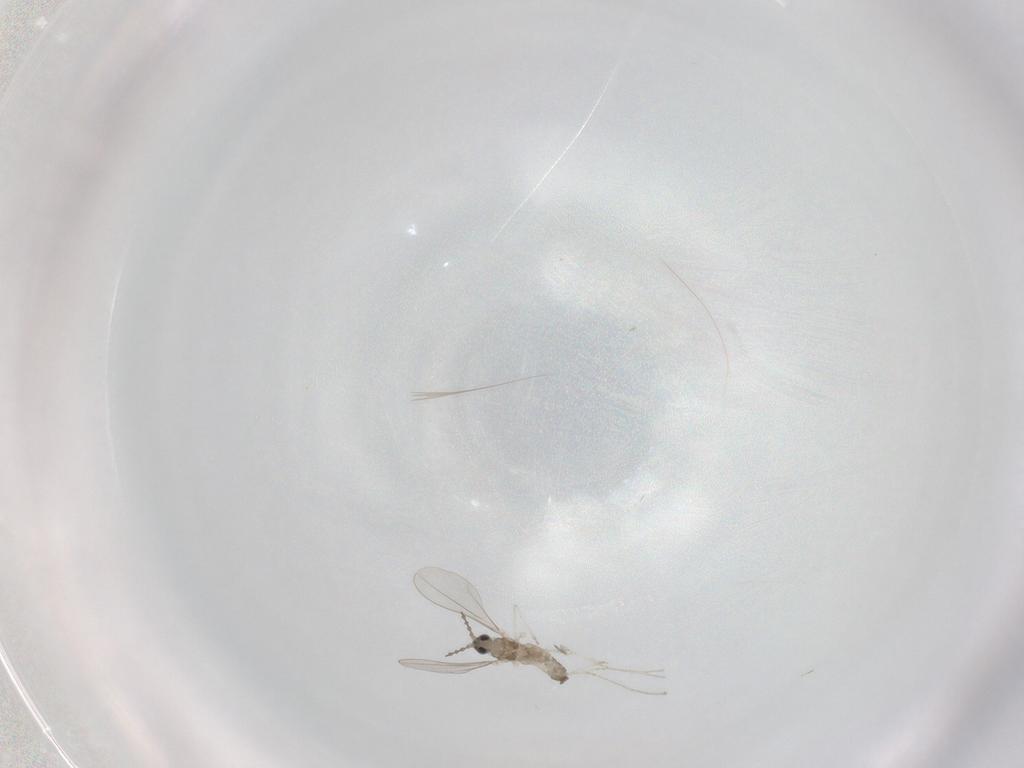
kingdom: Animalia
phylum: Arthropoda
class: Insecta
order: Diptera
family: Cecidomyiidae
